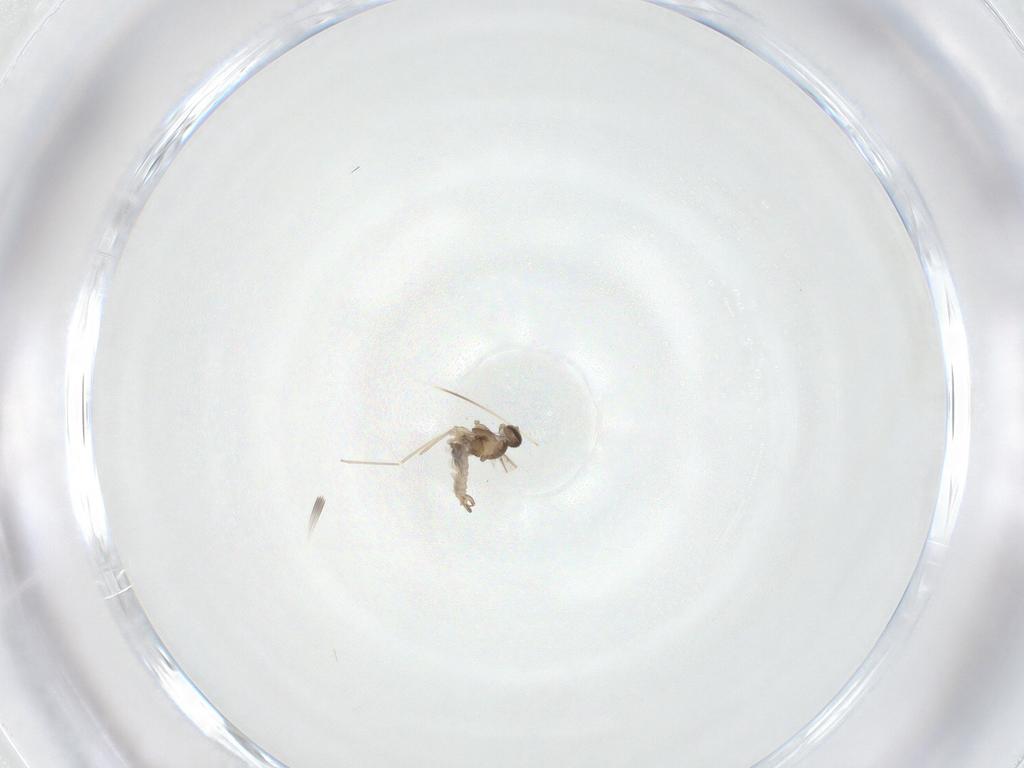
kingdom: Animalia
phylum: Arthropoda
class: Insecta
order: Diptera
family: Cecidomyiidae
